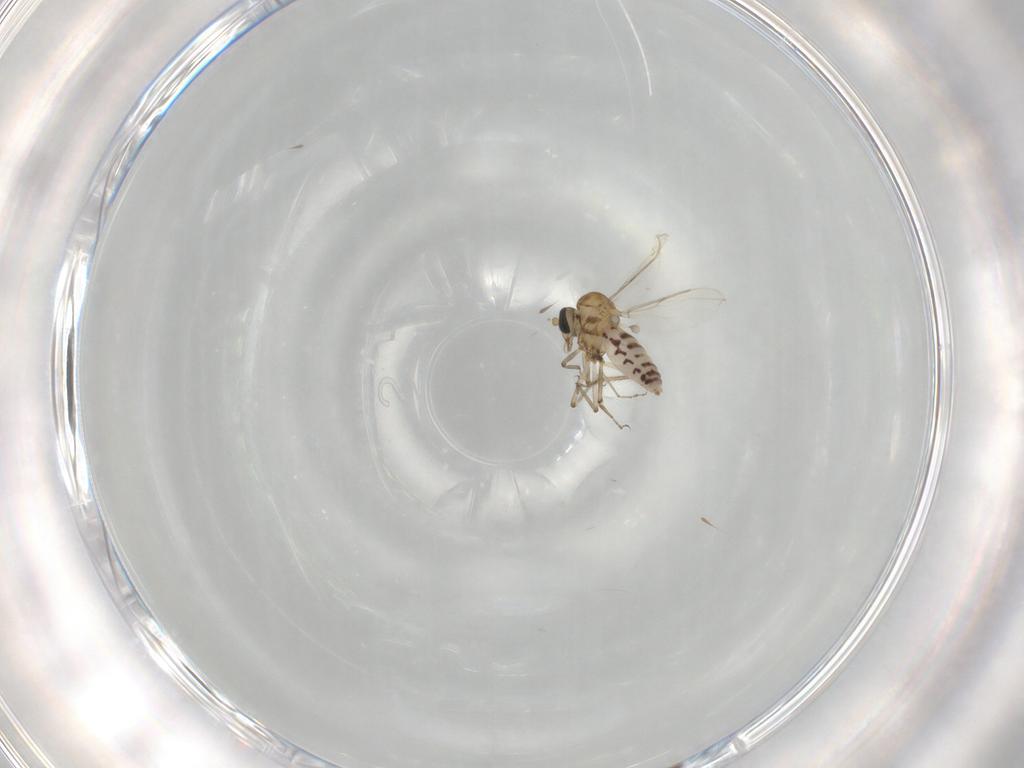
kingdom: Animalia
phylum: Arthropoda
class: Insecta
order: Diptera
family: Ceratopogonidae
